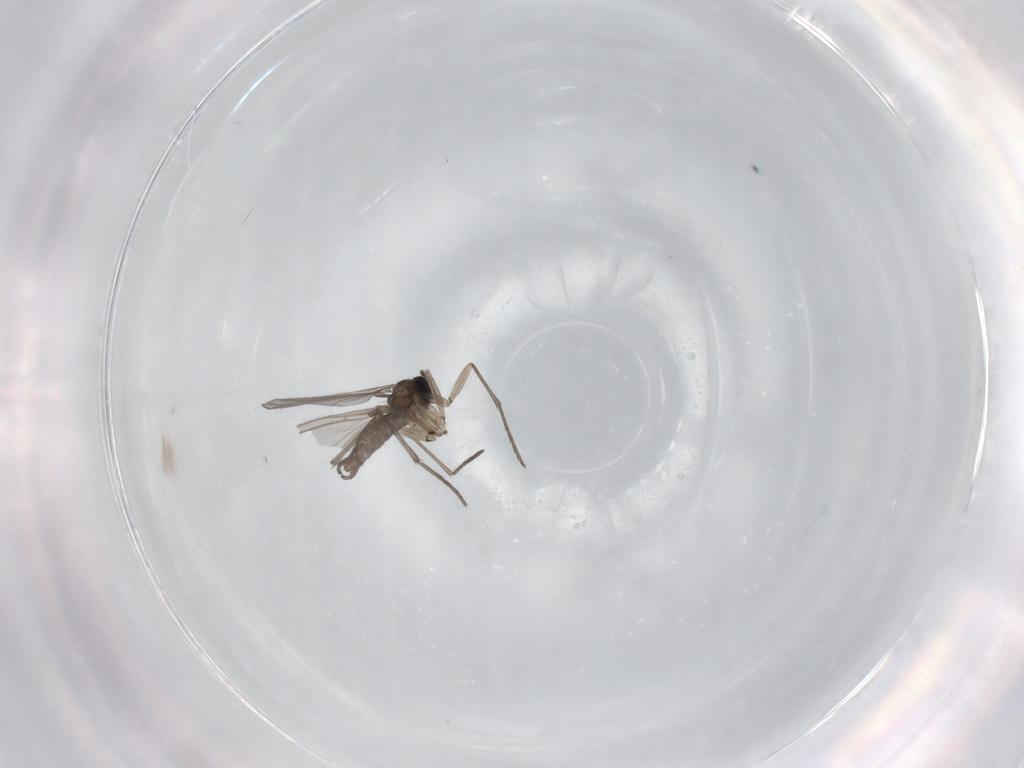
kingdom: Animalia
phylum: Arthropoda
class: Insecta
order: Diptera
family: Sciaridae
